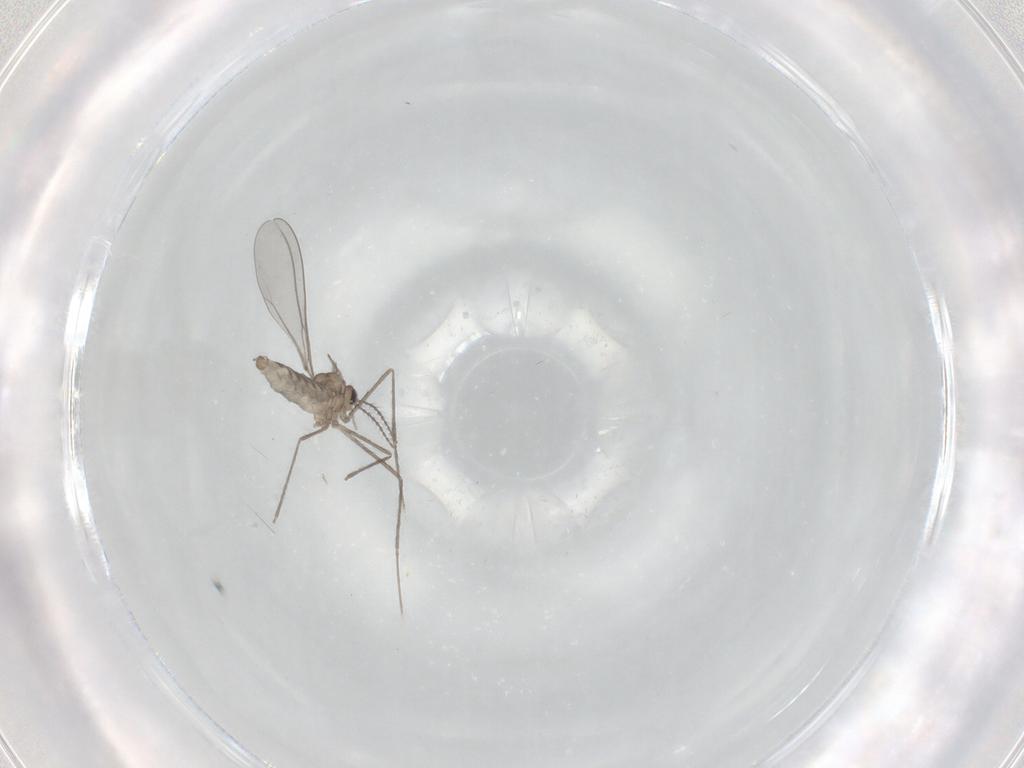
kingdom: Animalia
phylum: Arthropoda
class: Insecta
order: Diptera
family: Cecidomyiidae
